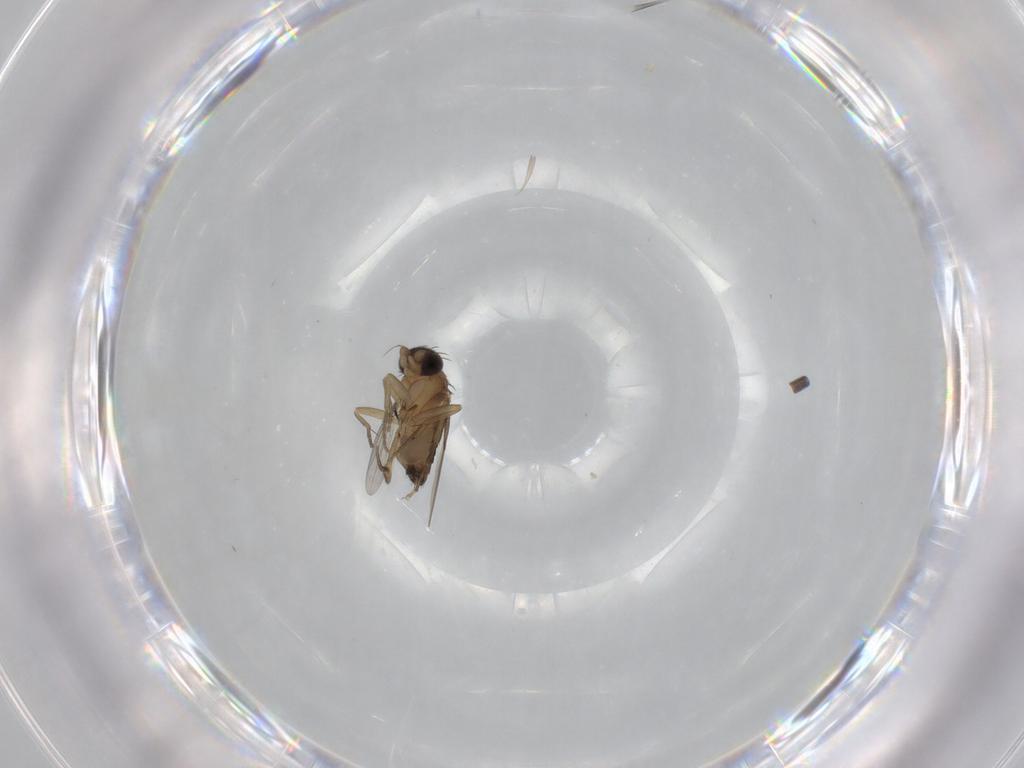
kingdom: Animalia
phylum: Arthropoda
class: Insecta
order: Diptera
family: Phoridae
